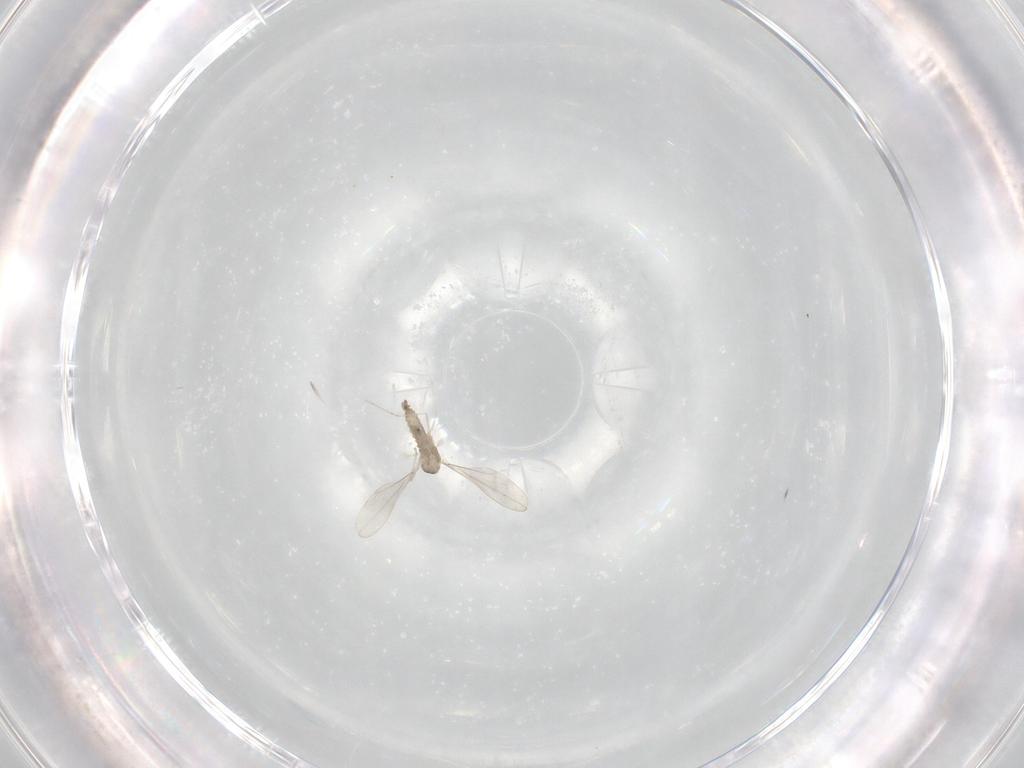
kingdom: Animalia
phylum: Arthropoda
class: Insecta
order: Diptera
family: Cecidomyiidae
